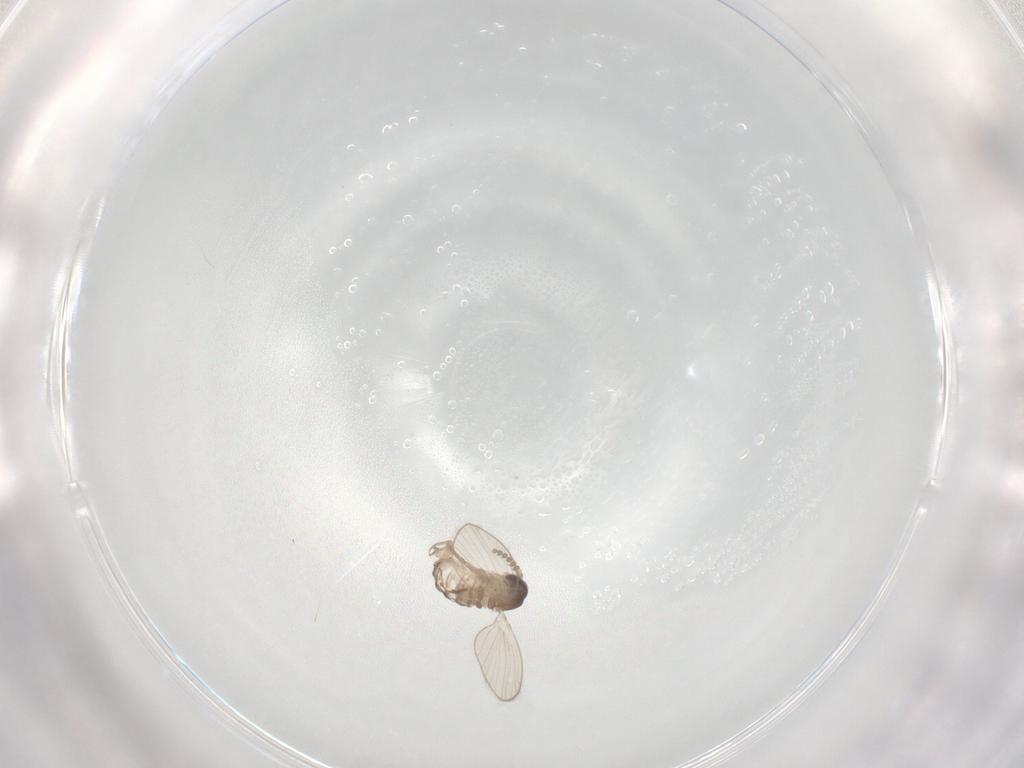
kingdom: Animalia
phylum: Arthropoda
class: Insecta
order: Diptera
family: Psychodidae
